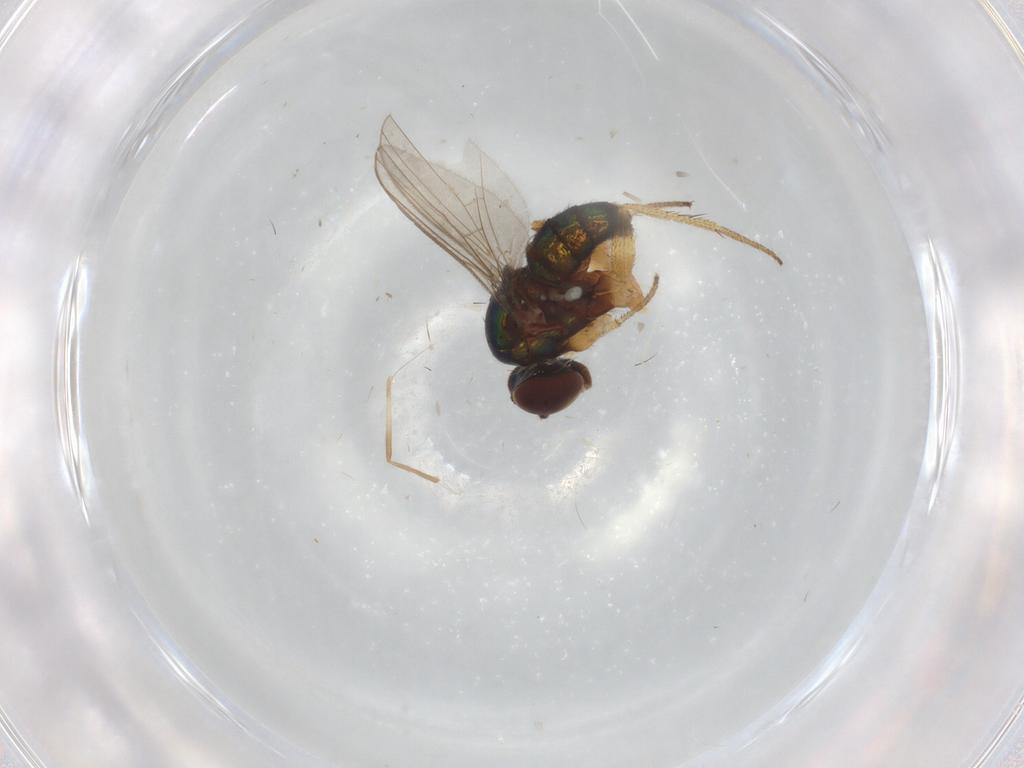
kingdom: Animalia
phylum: Arthropoda
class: Insecta
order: Diptera
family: Cecidomyiidae
